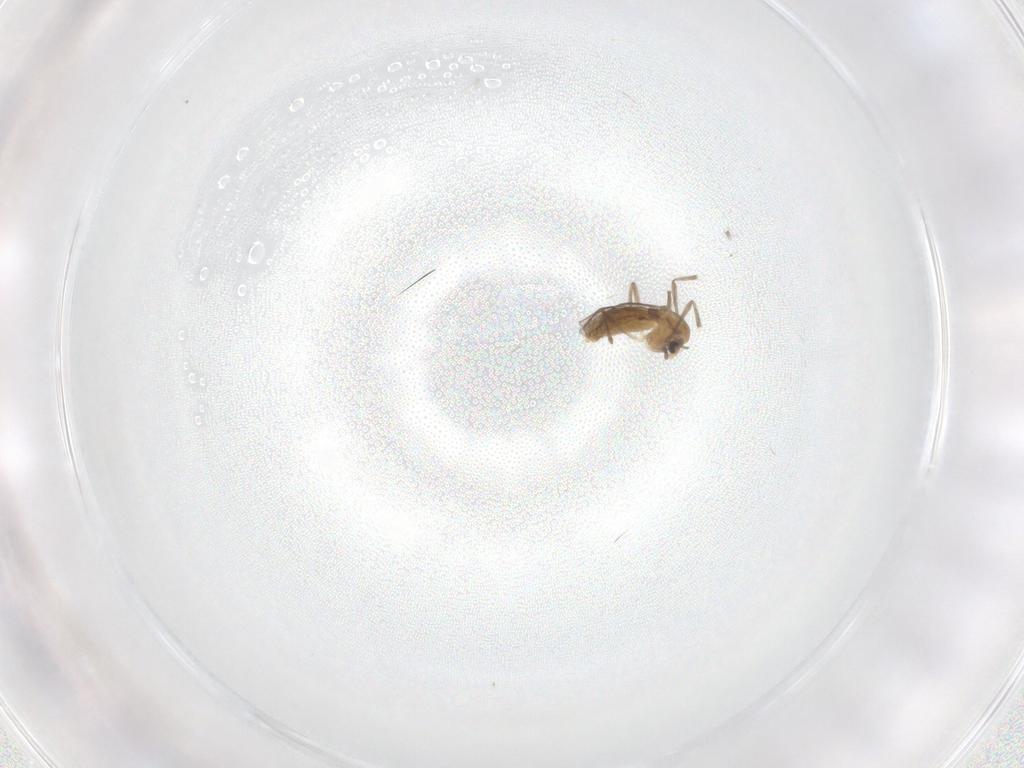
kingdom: Animalia
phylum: Arthropoda
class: Insecta
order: Diptera
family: Chironomidae
